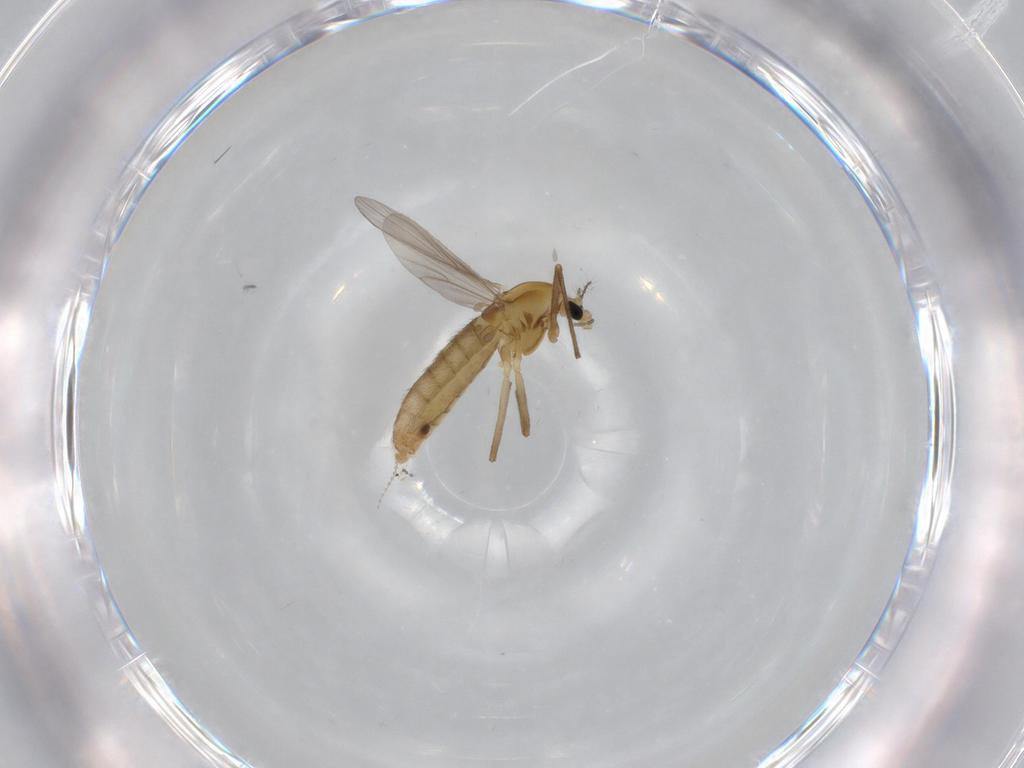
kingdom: Animalia
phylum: Arthropoda
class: Insecta
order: Diptera
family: Chironomidae
